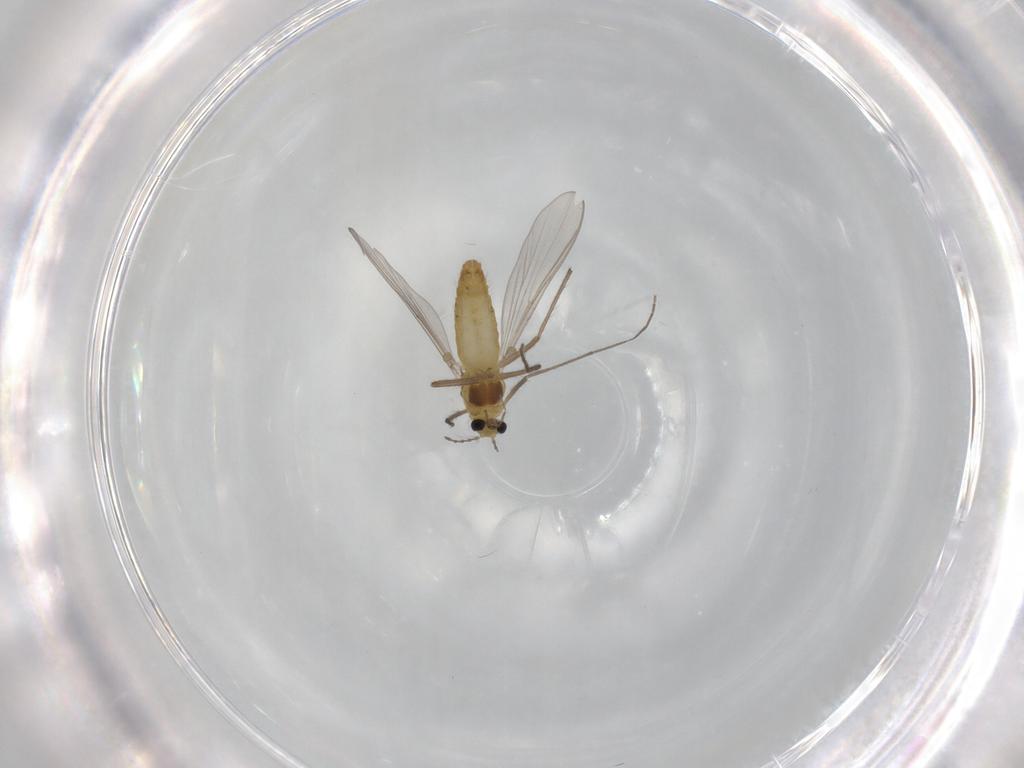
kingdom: Animalia
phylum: Arthropoda
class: Insecta
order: Diptera
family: Chironomidae
